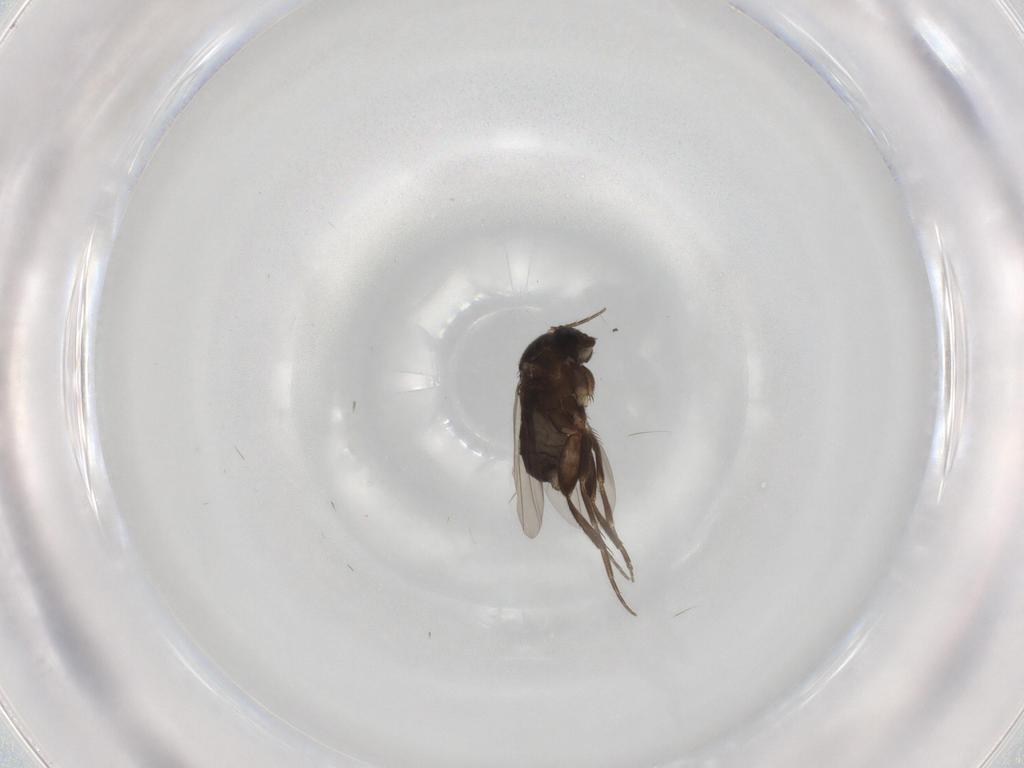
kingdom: Animalia
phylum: Arthropoda
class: Insecta
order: Diptera
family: Phoridae
